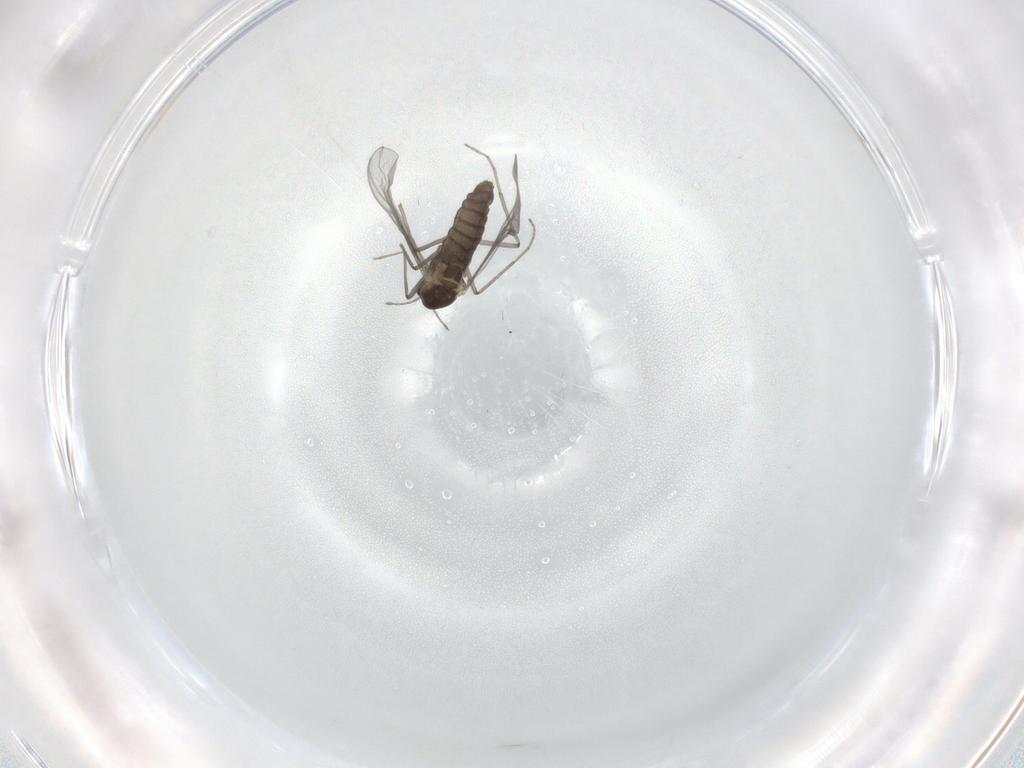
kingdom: Animalia
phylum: Arthropoda
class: Insecta
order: Diptera
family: Chironomidae
